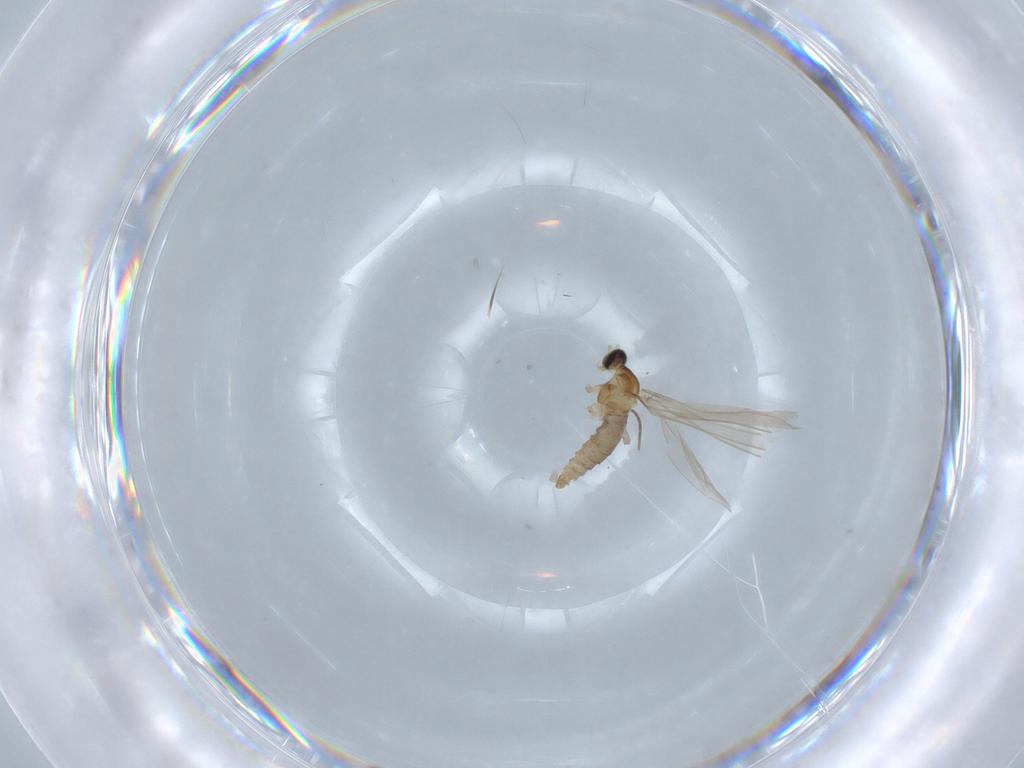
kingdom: Animalia
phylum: Arthropoda
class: Insecta
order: Diptera
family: Cecidomyiidae
